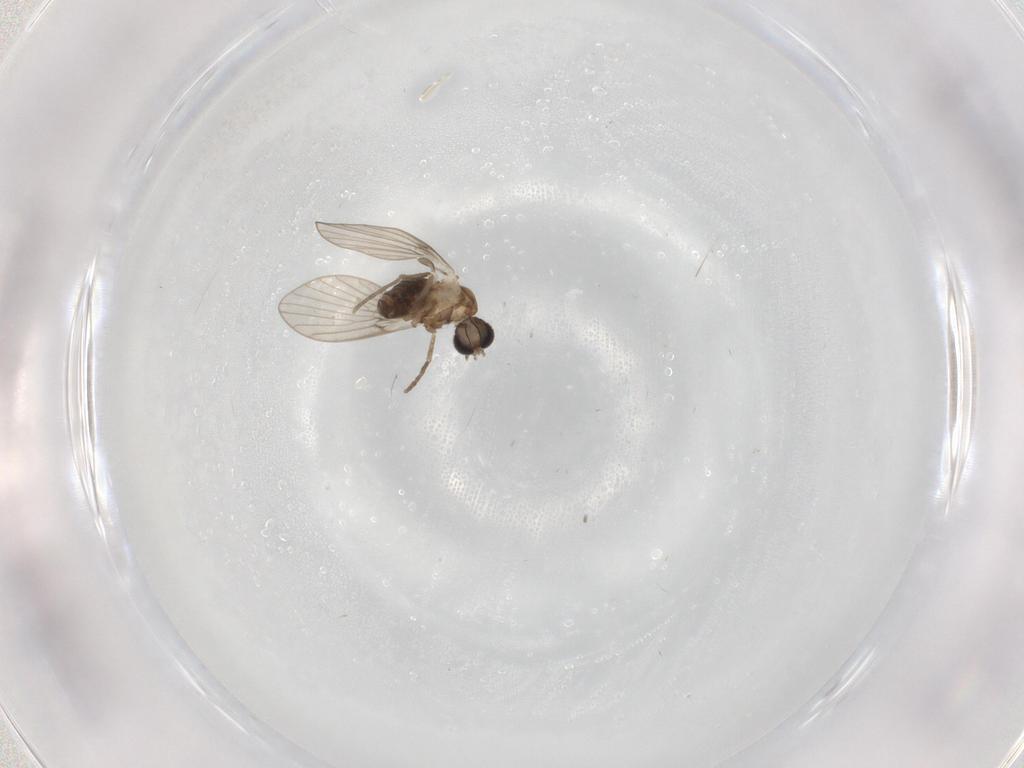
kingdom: Animalia
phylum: Arthropoda
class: Insecta
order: Diptera
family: Psychodidae
